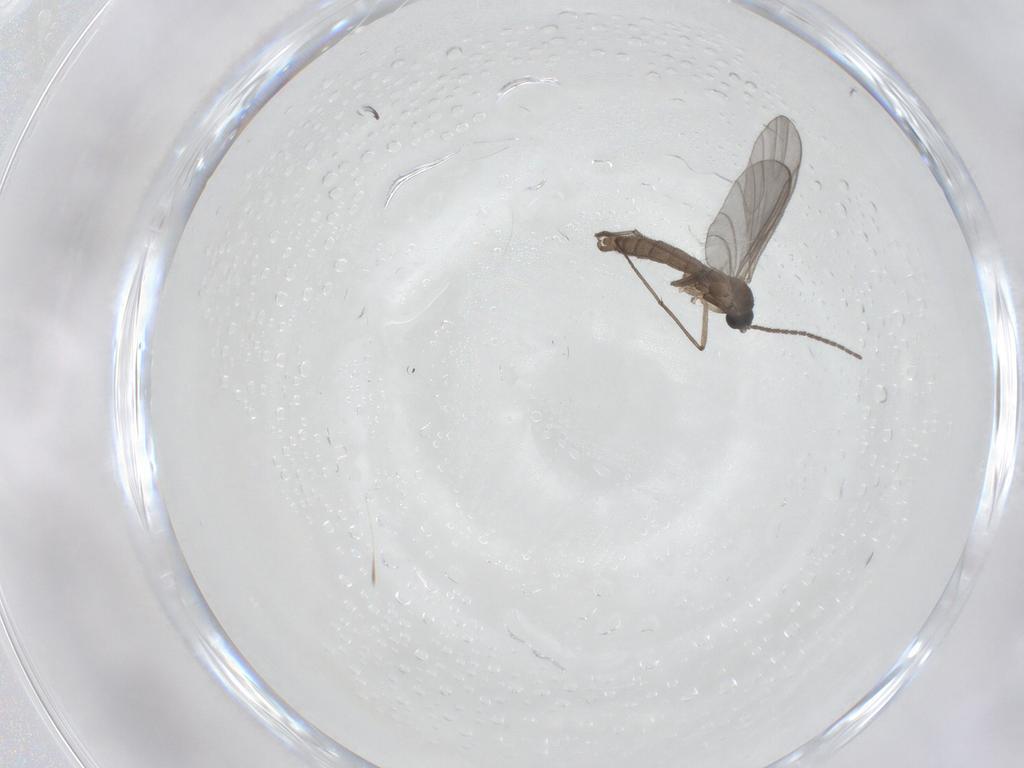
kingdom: Animalia
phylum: Arthropoda
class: Insecta
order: Diptera
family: Sciaridae
